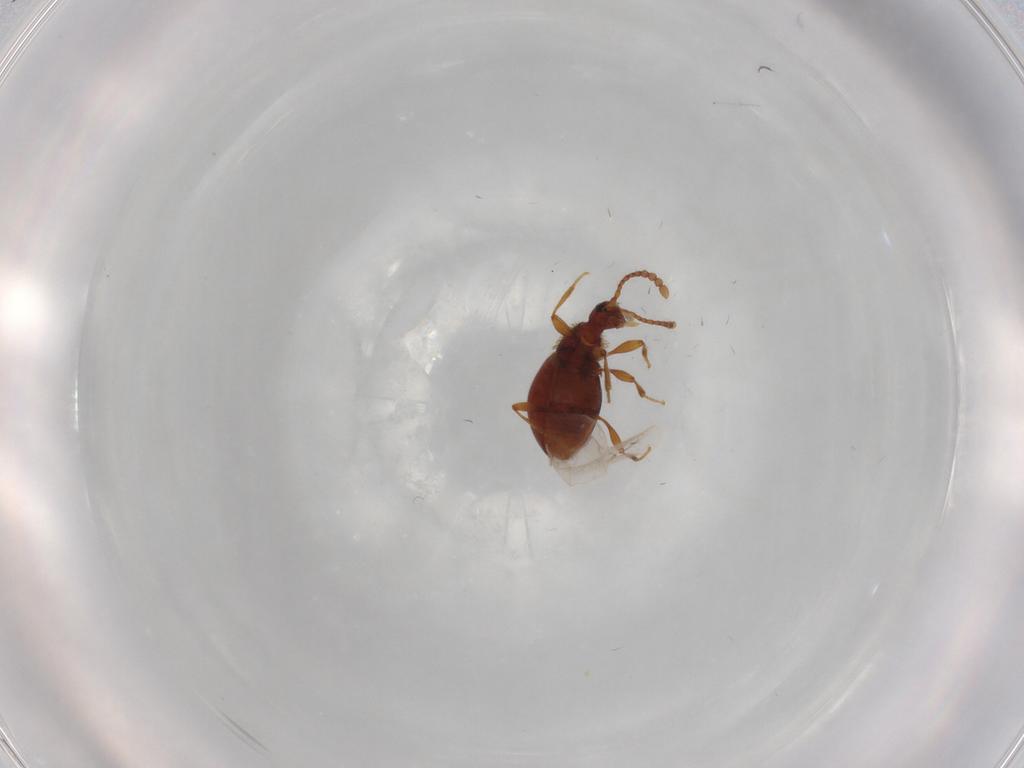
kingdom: Animalia
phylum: Arthropoda
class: Insecta
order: Coleoptera
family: Staphylinidae
